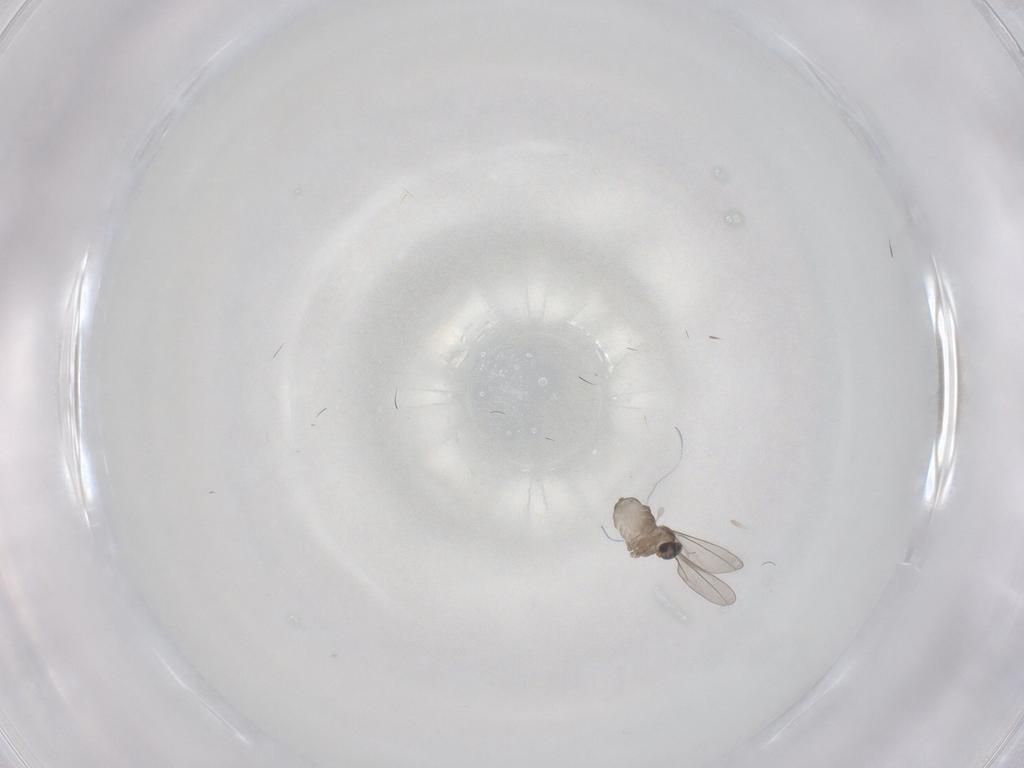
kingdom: Animalia
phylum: Arthropoda
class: Insecta
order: Diptera
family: Cecidomyiidae
